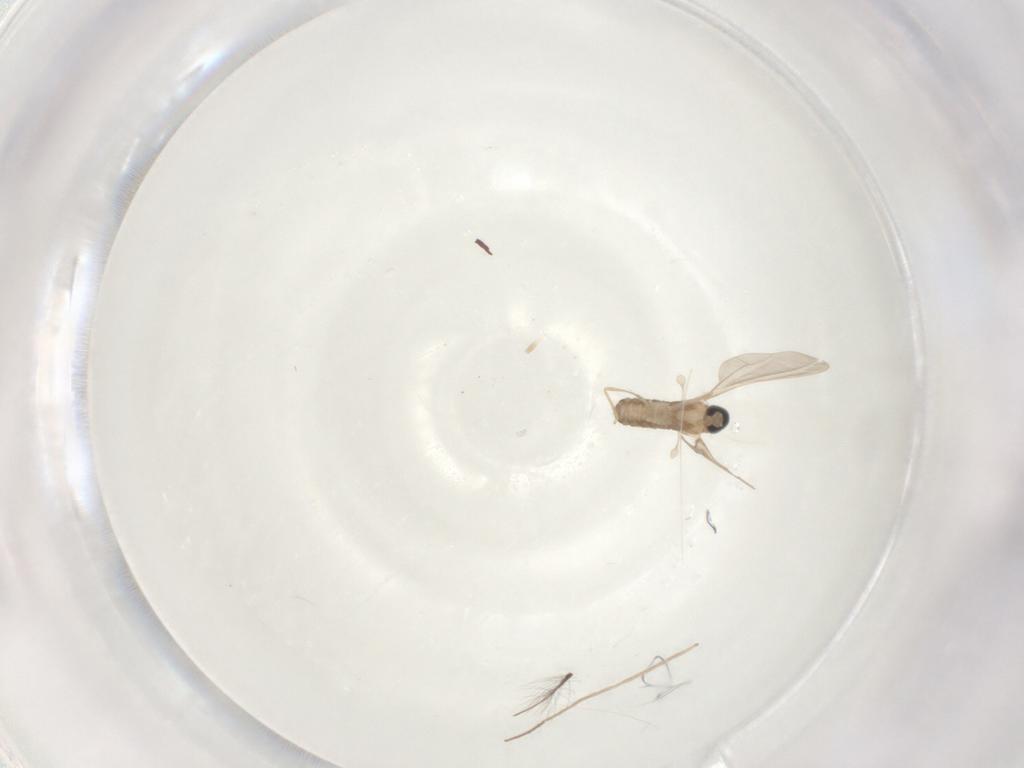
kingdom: Animalia
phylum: Arthropoda
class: Insecta
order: Diptera
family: Cecidomyiidae
